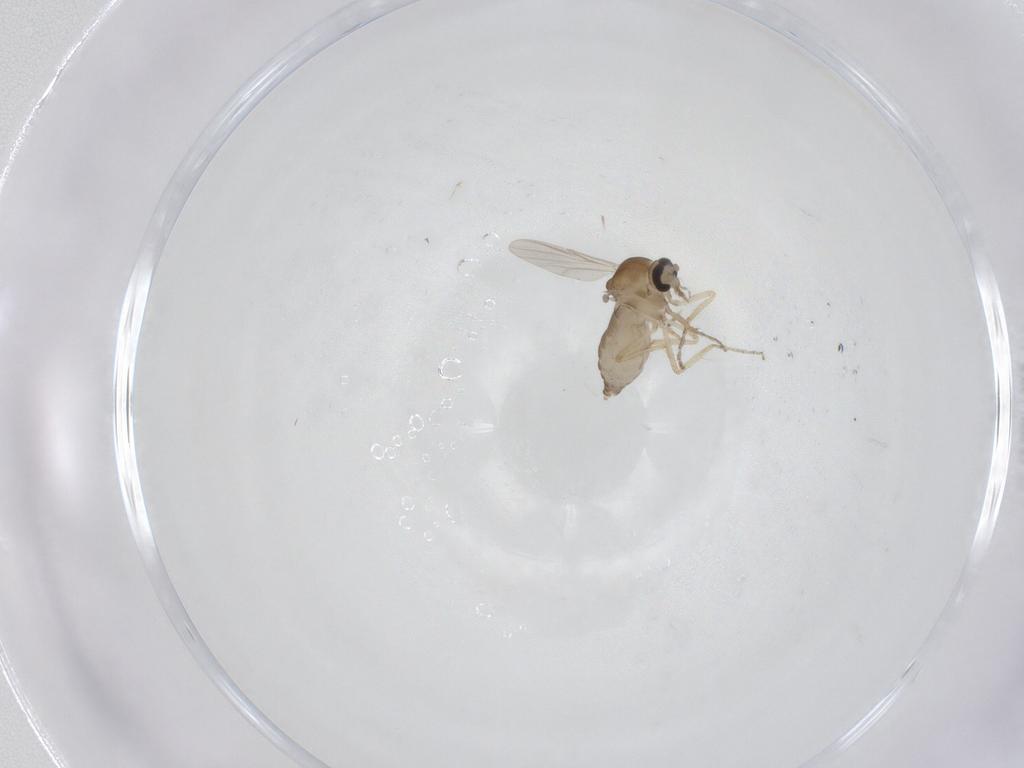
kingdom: Animalia
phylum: Arthropoda
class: Insecta
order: Diptera
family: Ceratopogonidae
